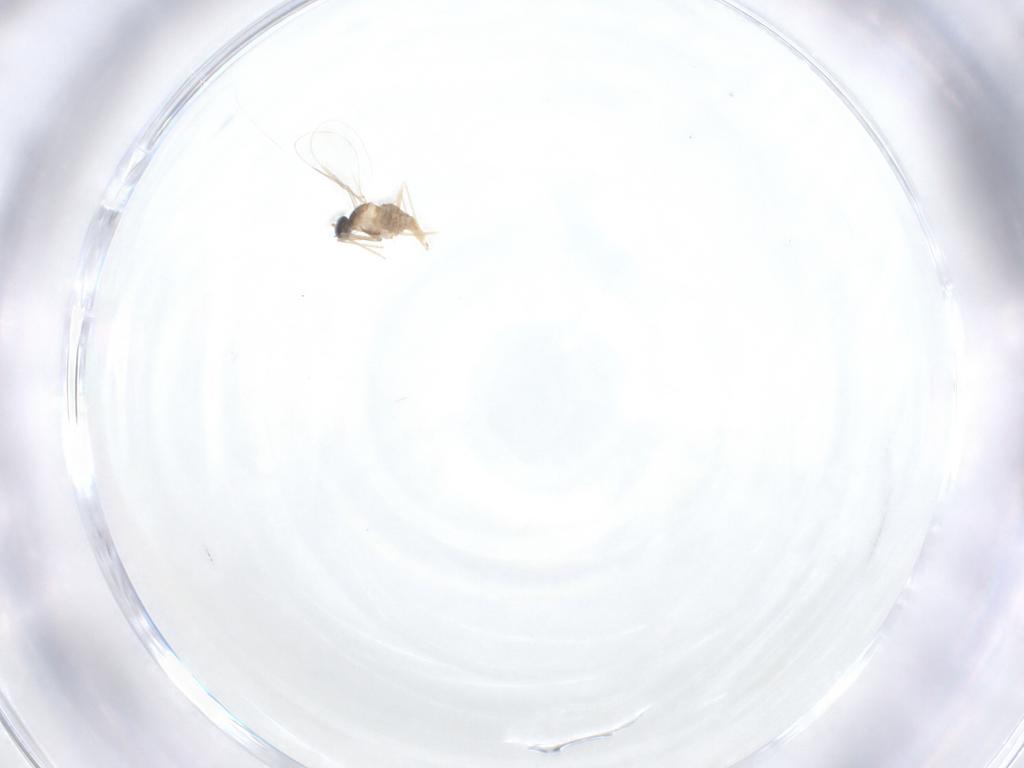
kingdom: Animalia
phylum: Arthropoda
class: Insecta
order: Diptera
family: Cecidomyiidae
